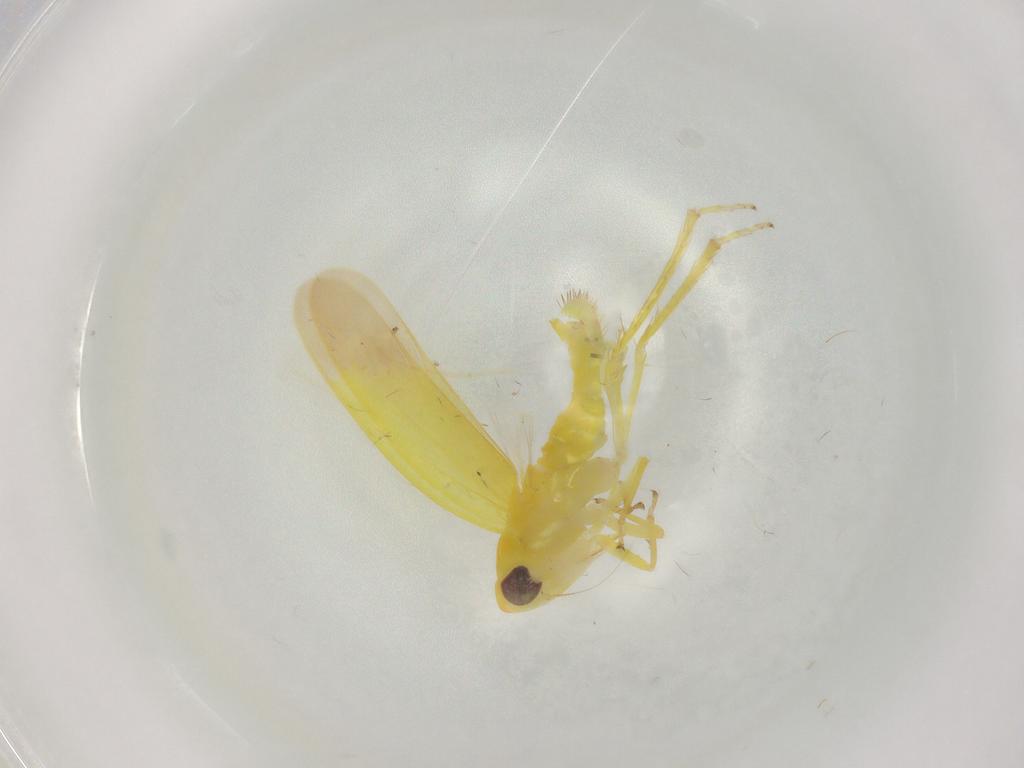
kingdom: Animalia
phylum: Arthropoda
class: Insecta
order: Hemiptera
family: Cicadellidae
